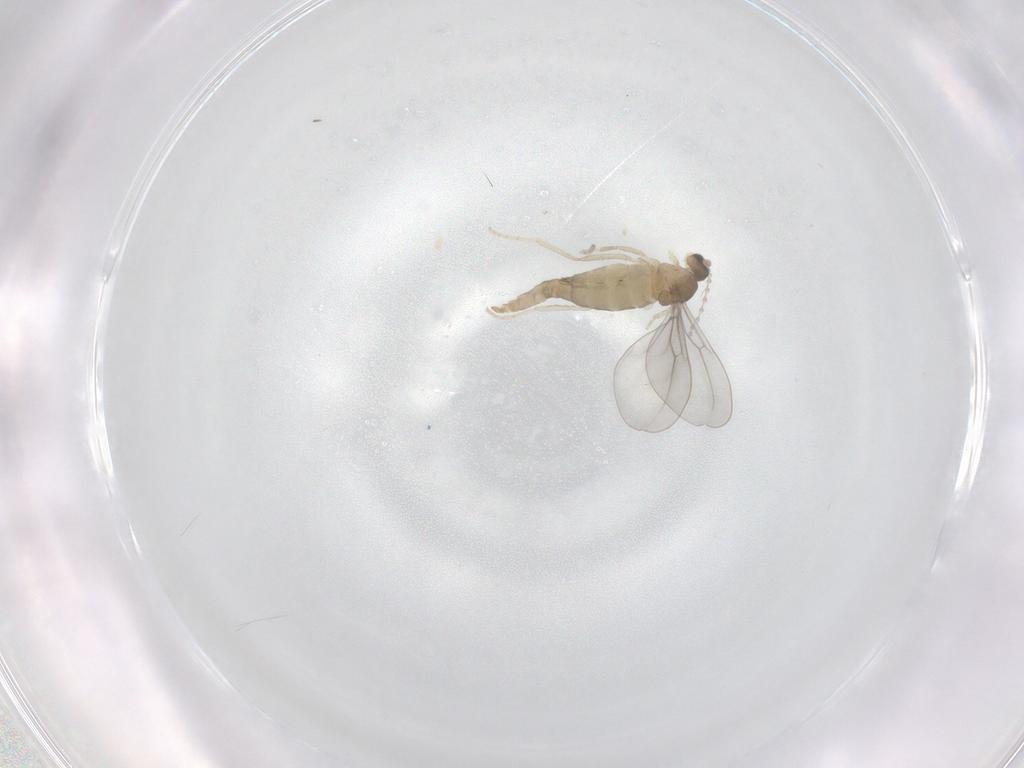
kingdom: Animalia
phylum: Arthropoda
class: Insecta
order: Diptera
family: Cecidomyiidae
